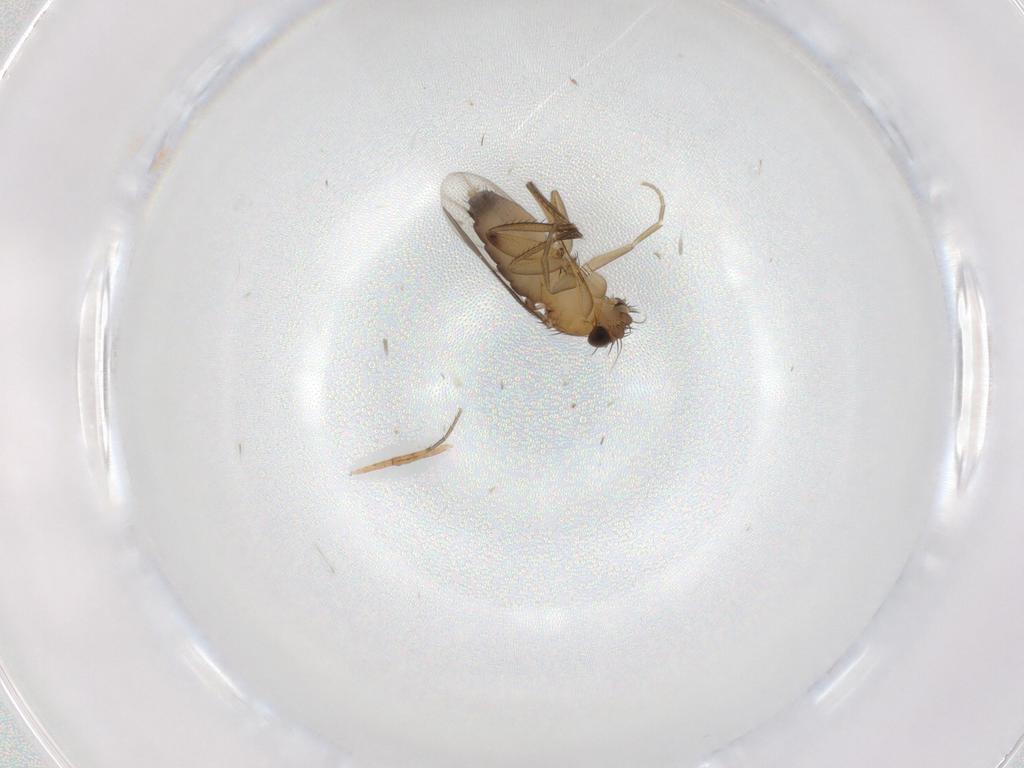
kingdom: Animalia
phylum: Arthropoda
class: Insecta
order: Diptera
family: Phoridae
